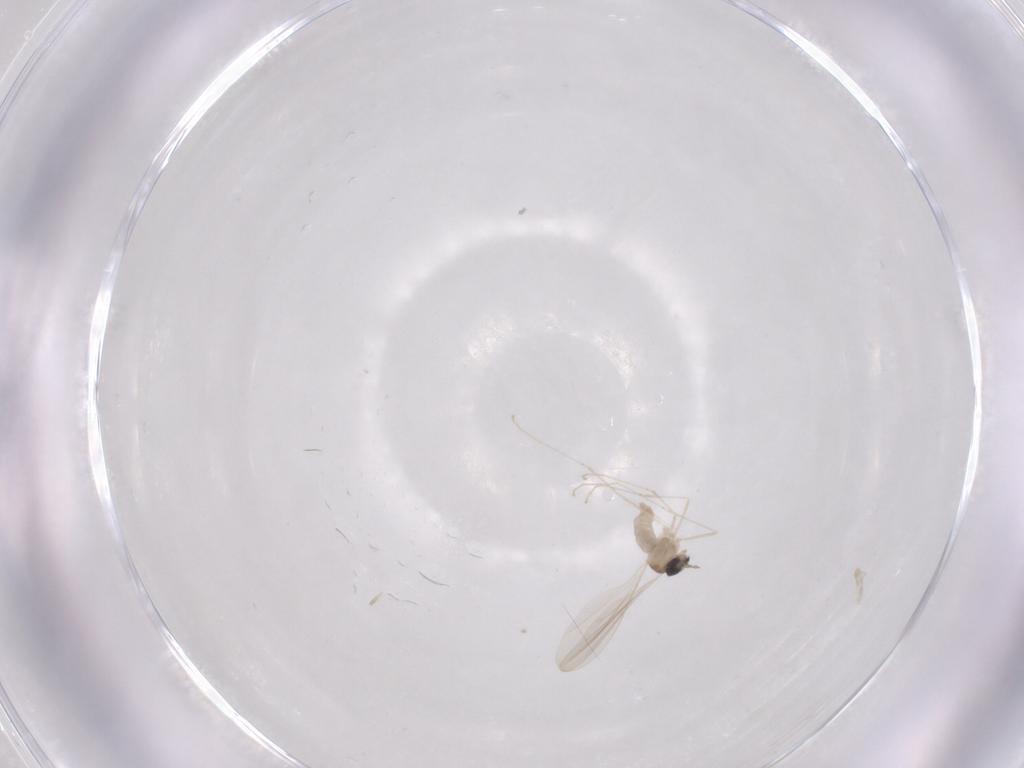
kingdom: Animalia
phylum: Arthropoda
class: Insecta
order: Diptera
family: Cecidomyiidae
